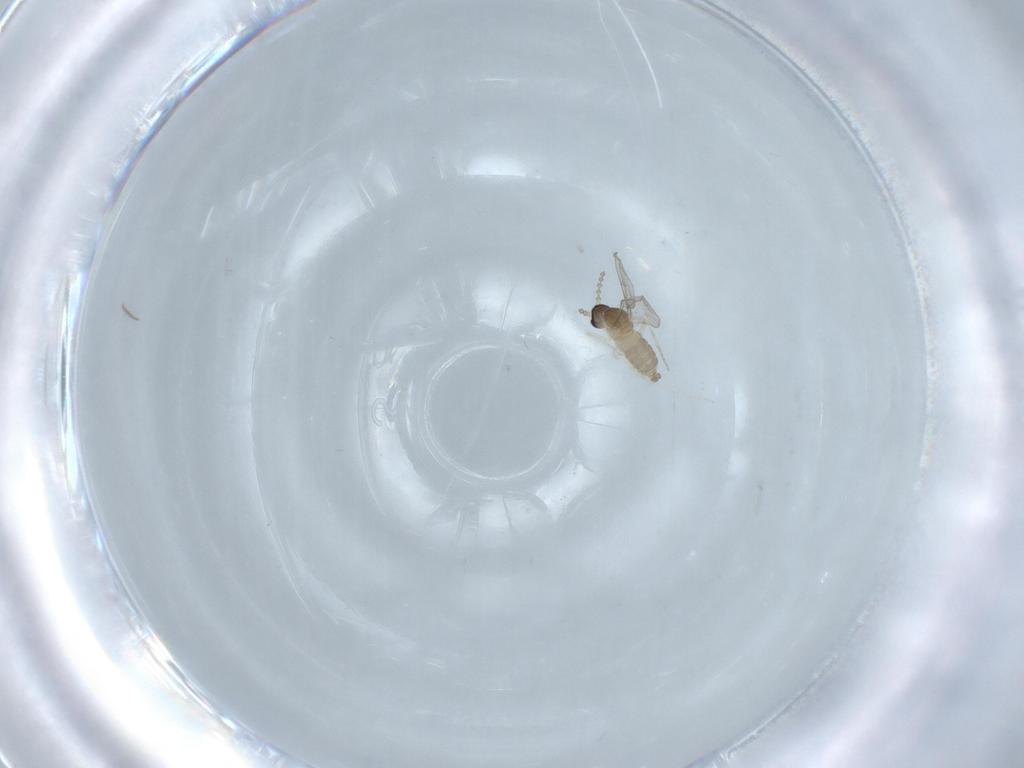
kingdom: Animalia
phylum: Arthropoda
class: Insecta
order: Diptera
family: Cecidomyiidae
